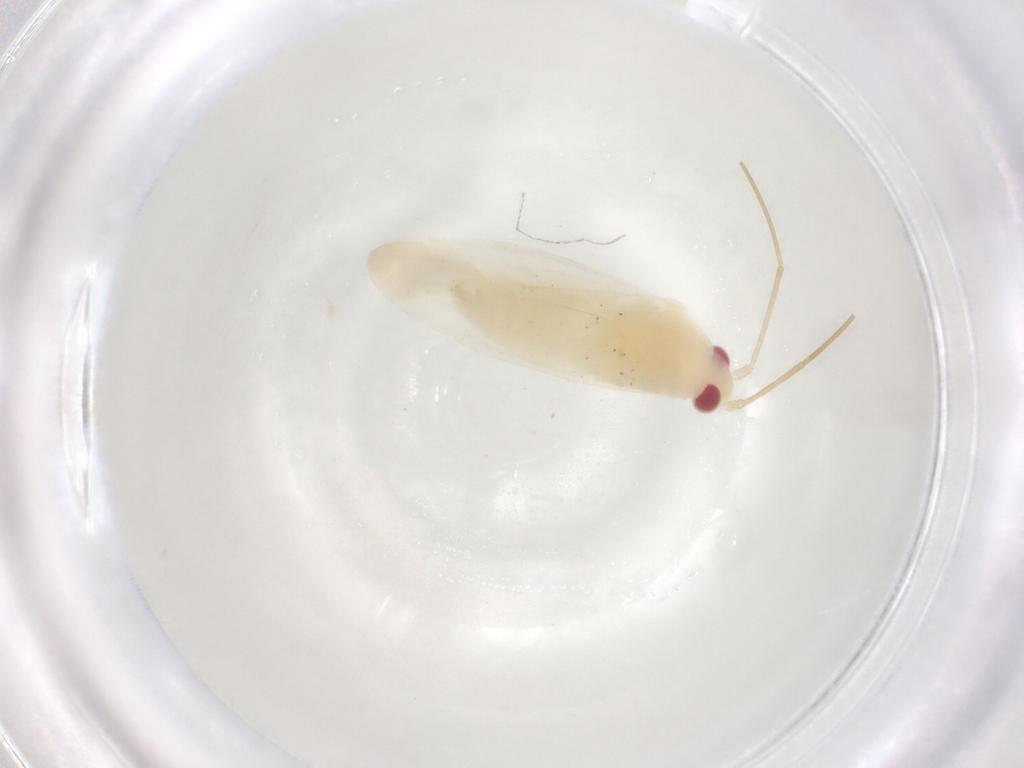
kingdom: Animalia
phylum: Arthropoda
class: Insecta
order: Hemiptera
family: Miridae
